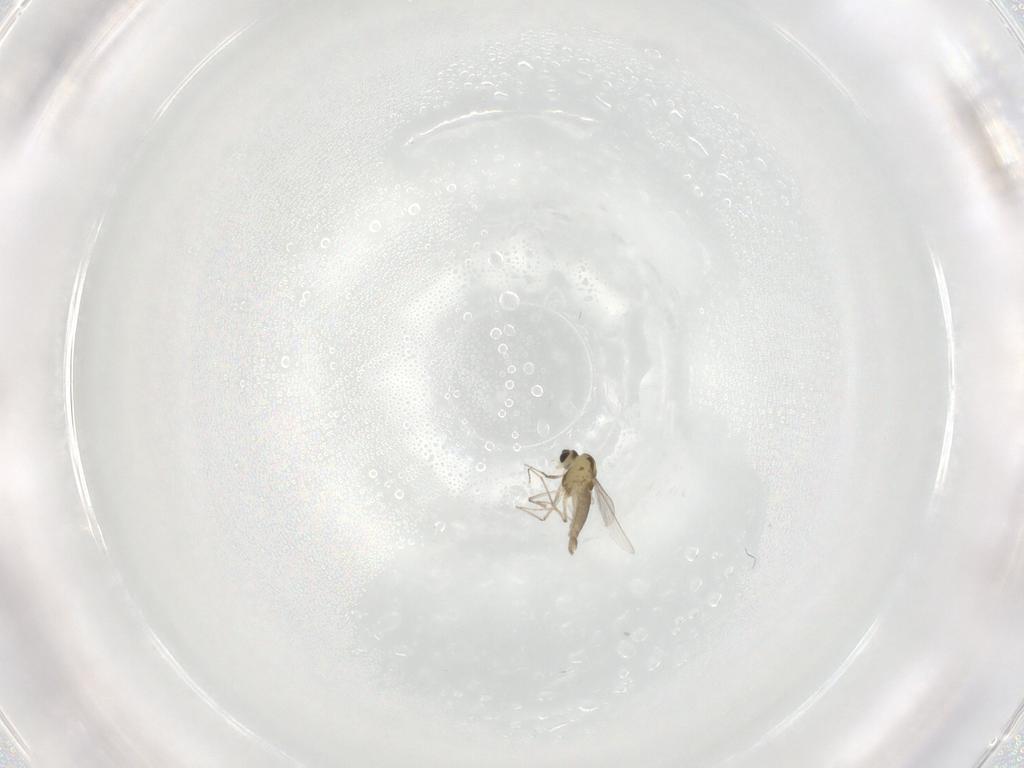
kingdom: Animalia
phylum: Arthropoda
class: Insecta
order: Diptera
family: Chironomidae
